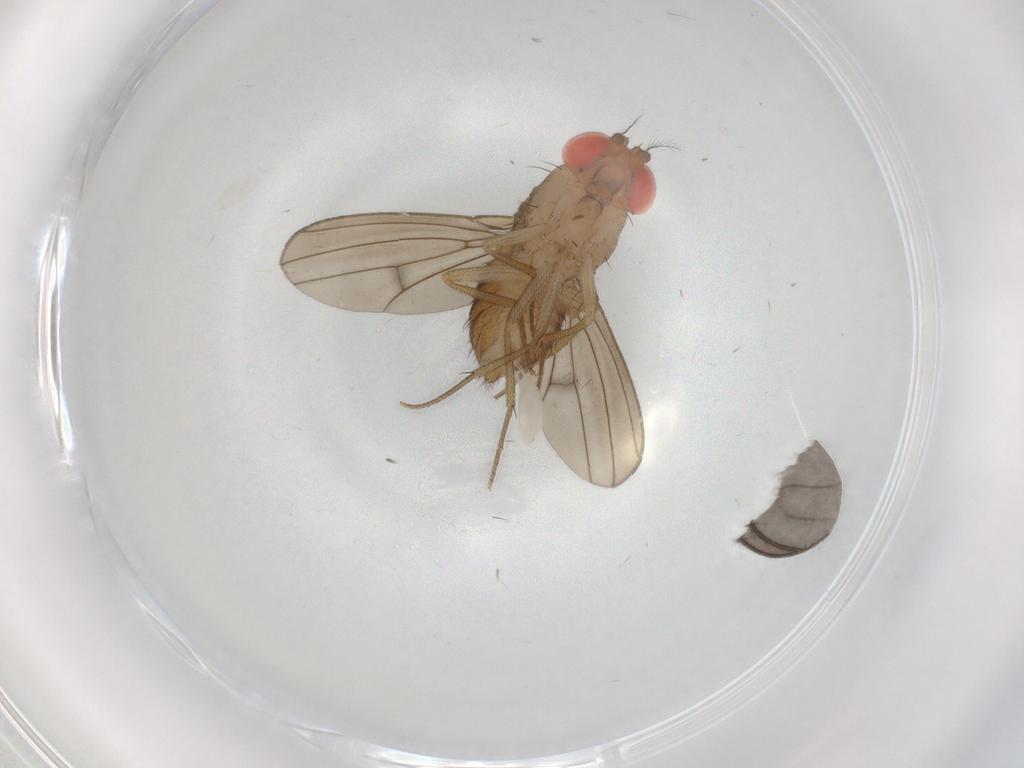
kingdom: Animalia
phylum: Arthropoda
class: Insecta
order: Diptera
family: Drosophilidae
